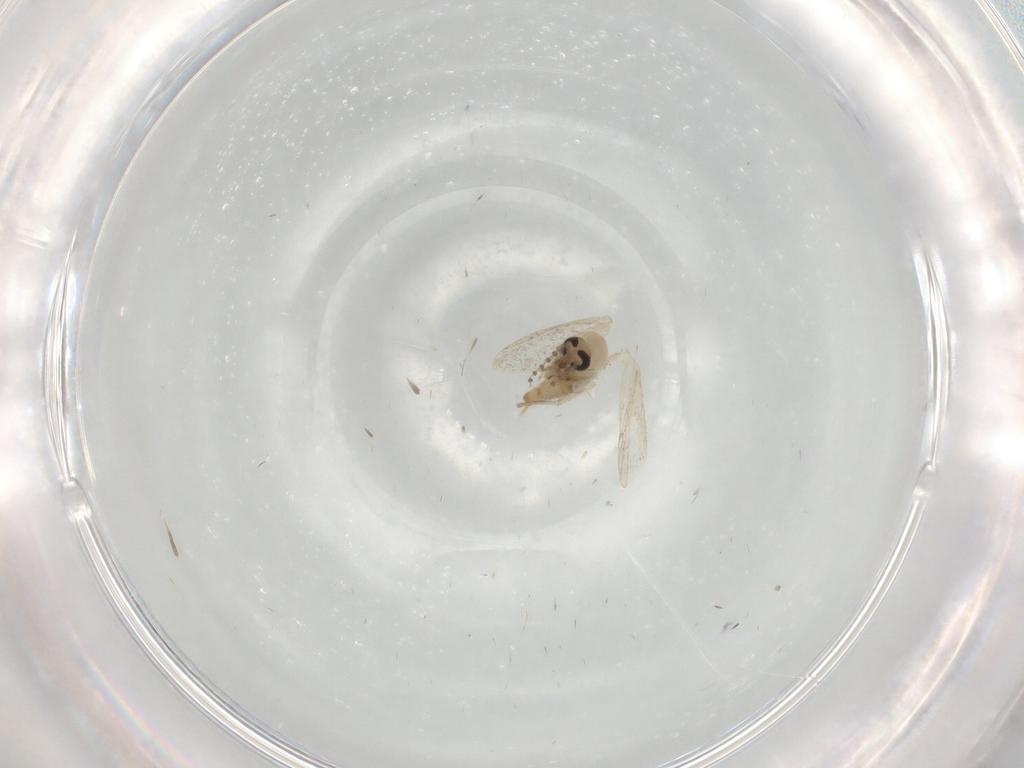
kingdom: Animalia
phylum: Arthropoda
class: Insecta
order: Diptera
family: Psychodidae
